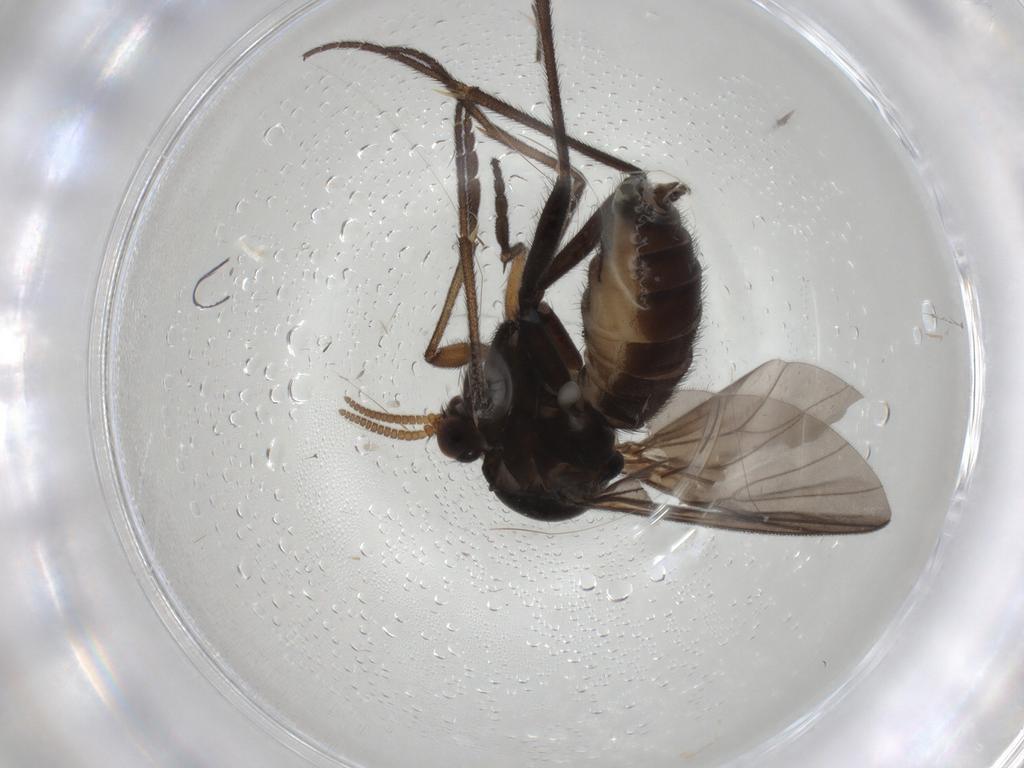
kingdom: Animalia
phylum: Arthropoda
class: Insecta
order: Diptera
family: Mycetophilidae
